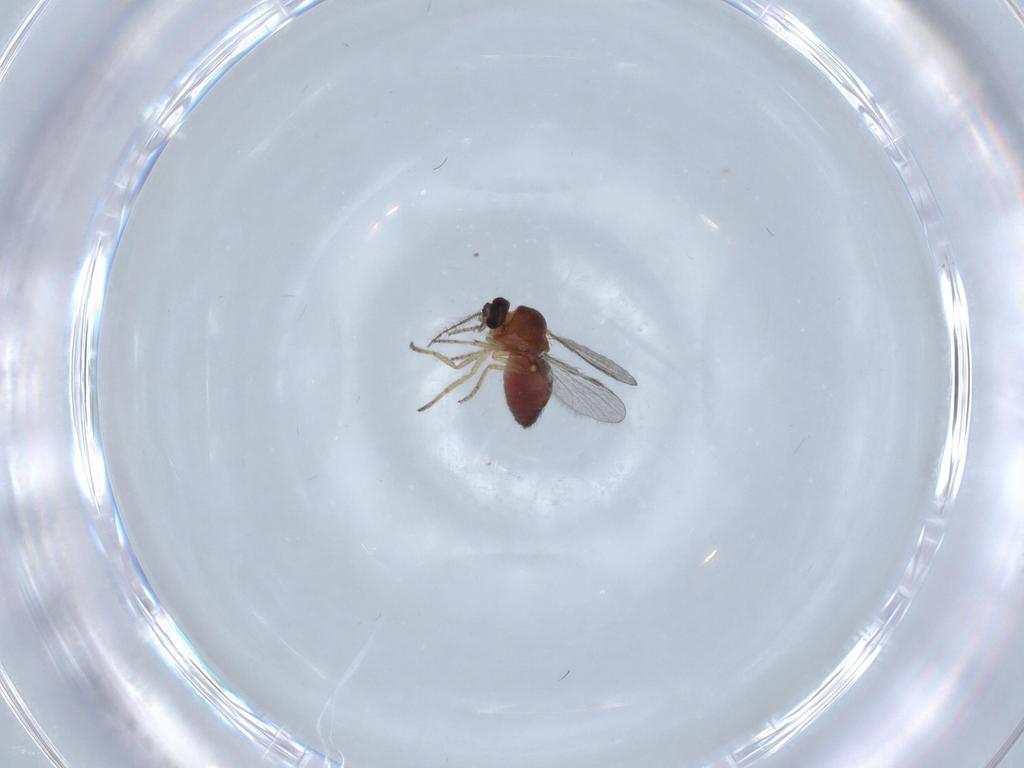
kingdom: Animalia
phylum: Arthropoda
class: Insecta
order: Diptera
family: Ceratopogonidae
